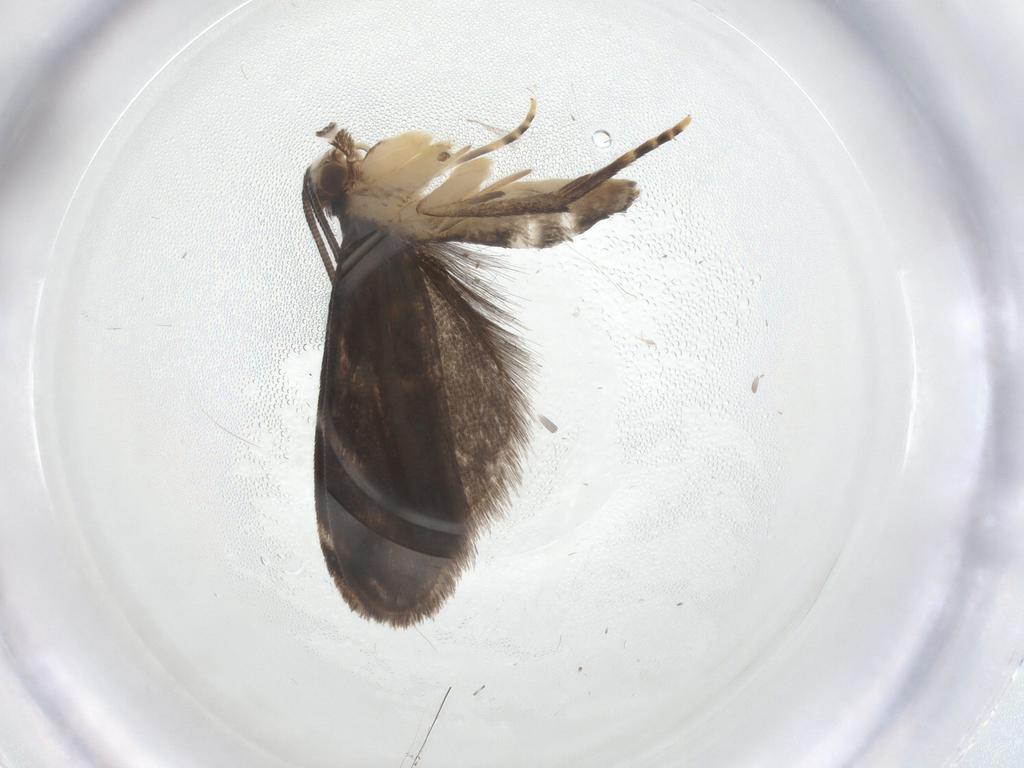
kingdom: Animalia
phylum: Arthropoda
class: Insecta
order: Lepidoptera
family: Dryadaulidae
